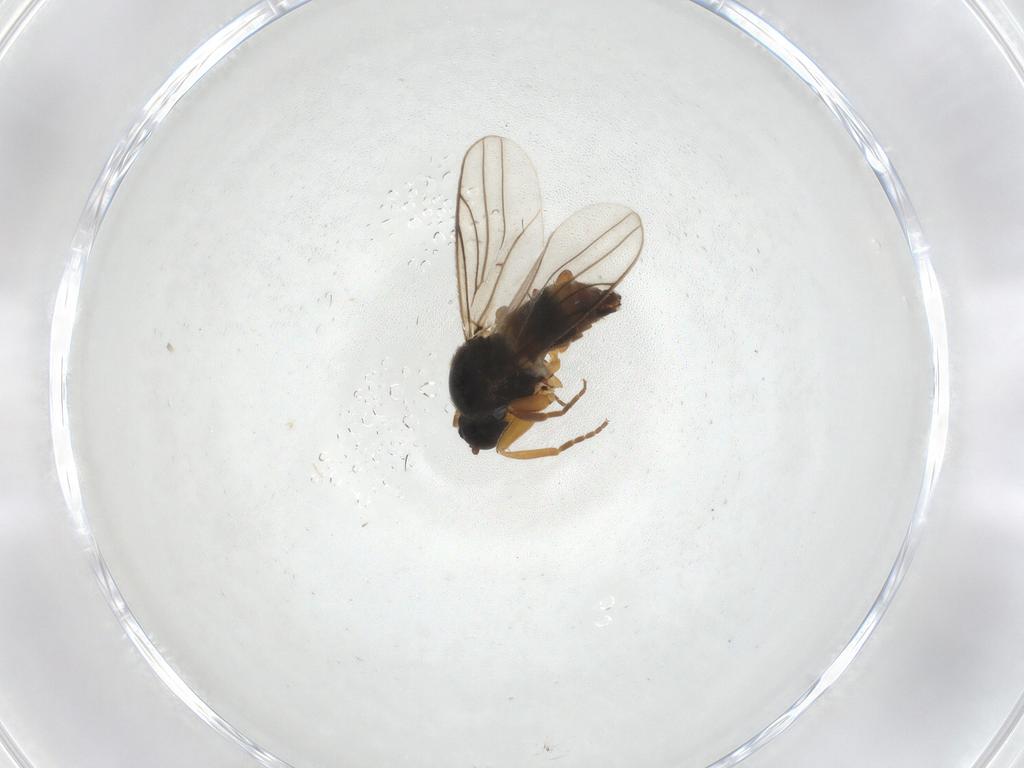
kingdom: Animalia
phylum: Arthropoda
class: Insecta
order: Diptera
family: Hybotidae
